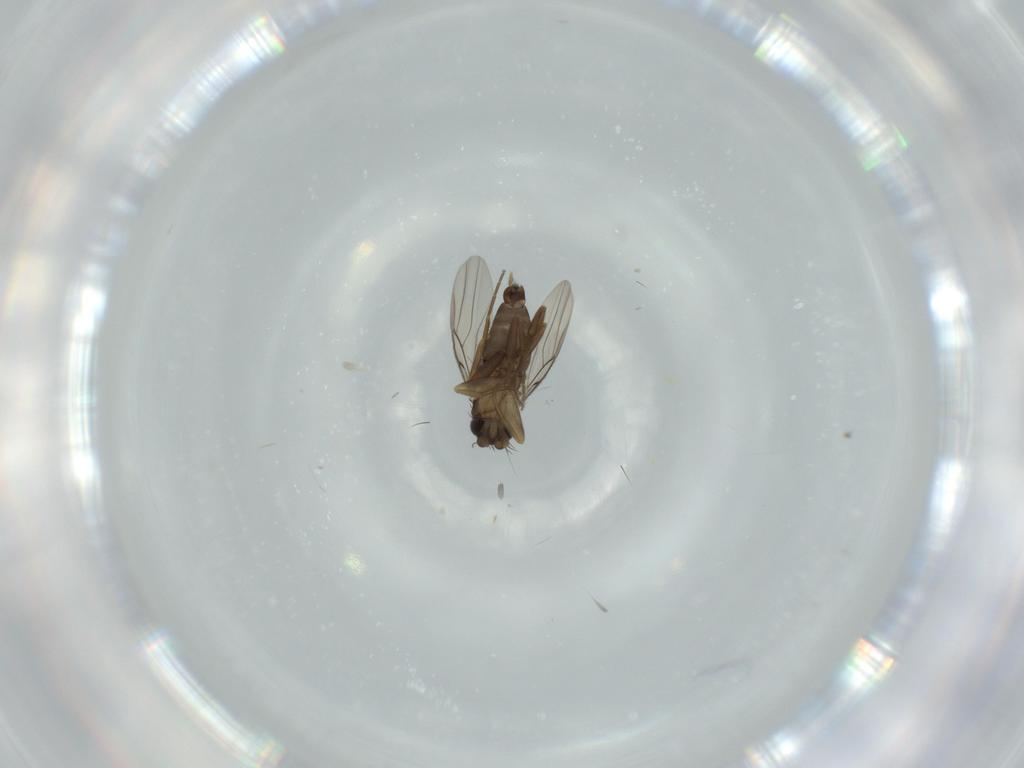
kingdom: Animalia
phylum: Arthropoda
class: Insecta
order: Diptera
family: Phoridae
